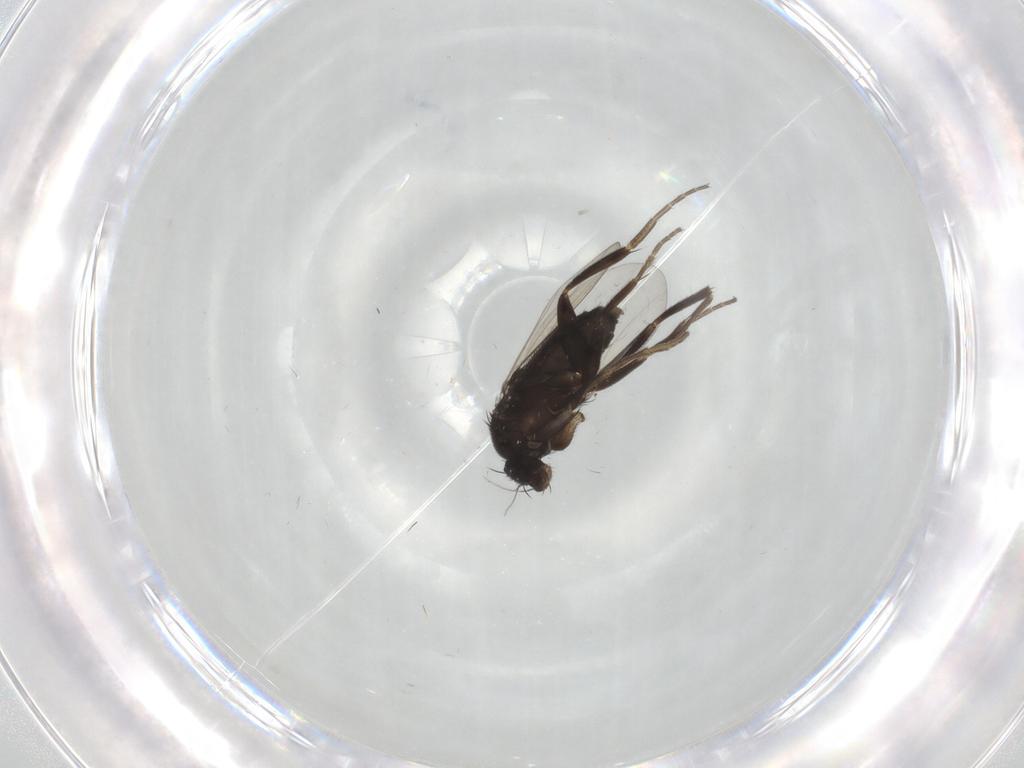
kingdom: Animalia
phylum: Arthropoda
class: Insecta
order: Diptera
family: Phoridae
